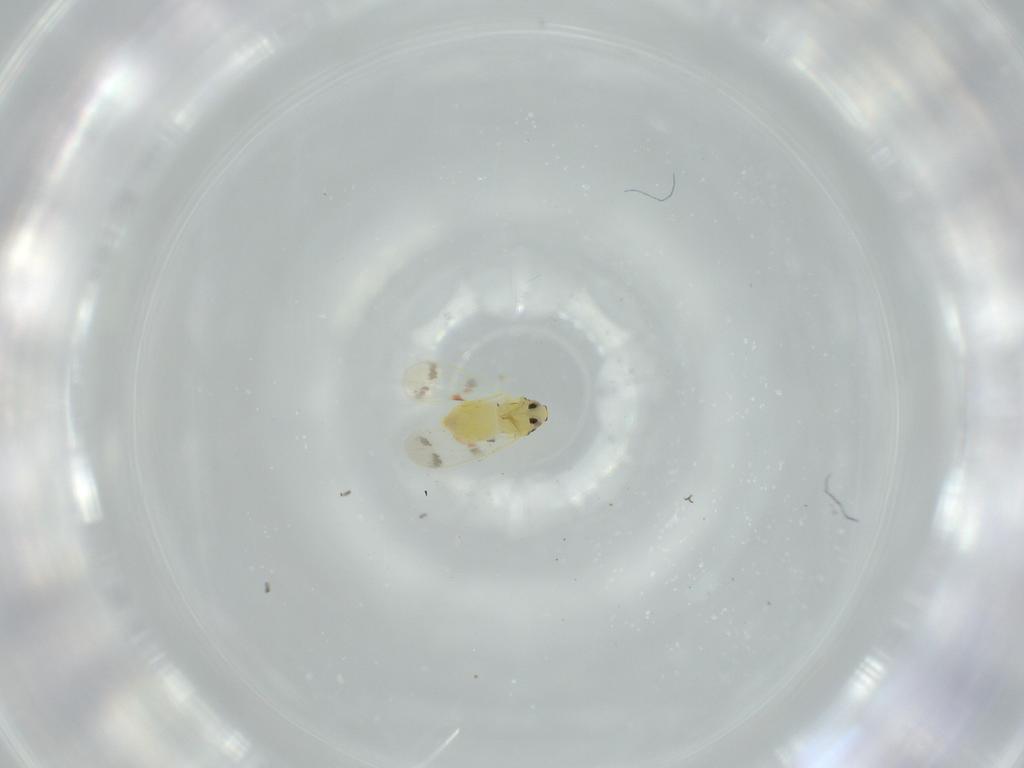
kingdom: Animalia
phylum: Arthropoda
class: Insecta
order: Hemiptera
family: Aleyrodidae
